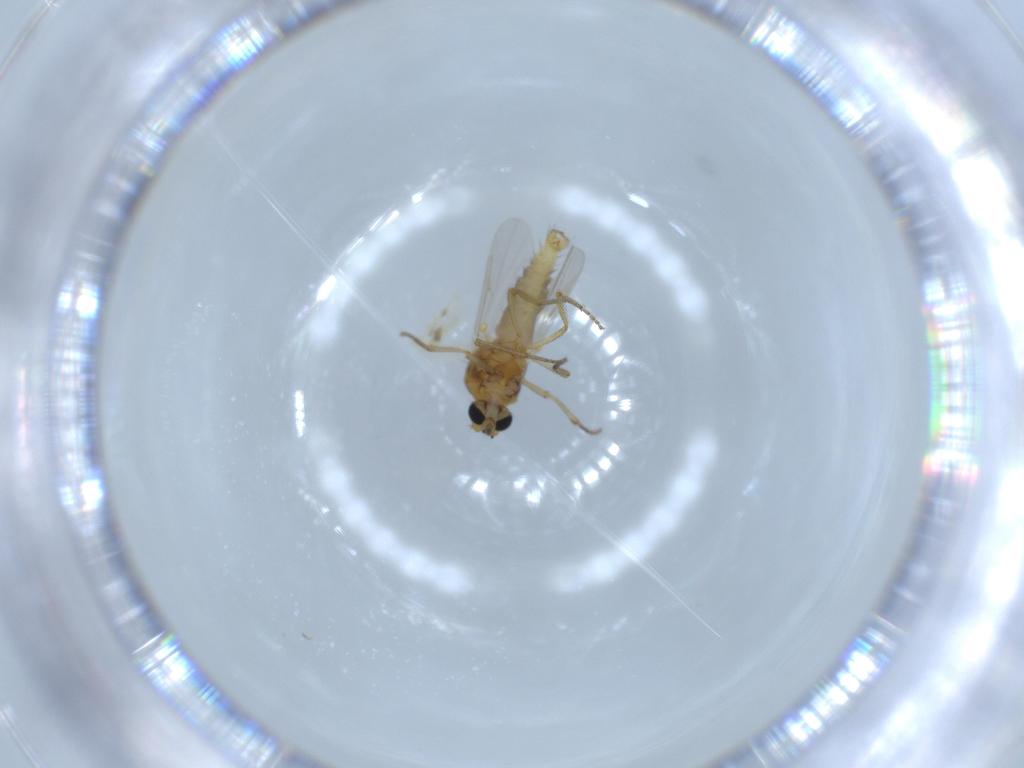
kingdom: Animalia
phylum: Arthropoda
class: Insecta
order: Diptera
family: Ceratopogonidae
